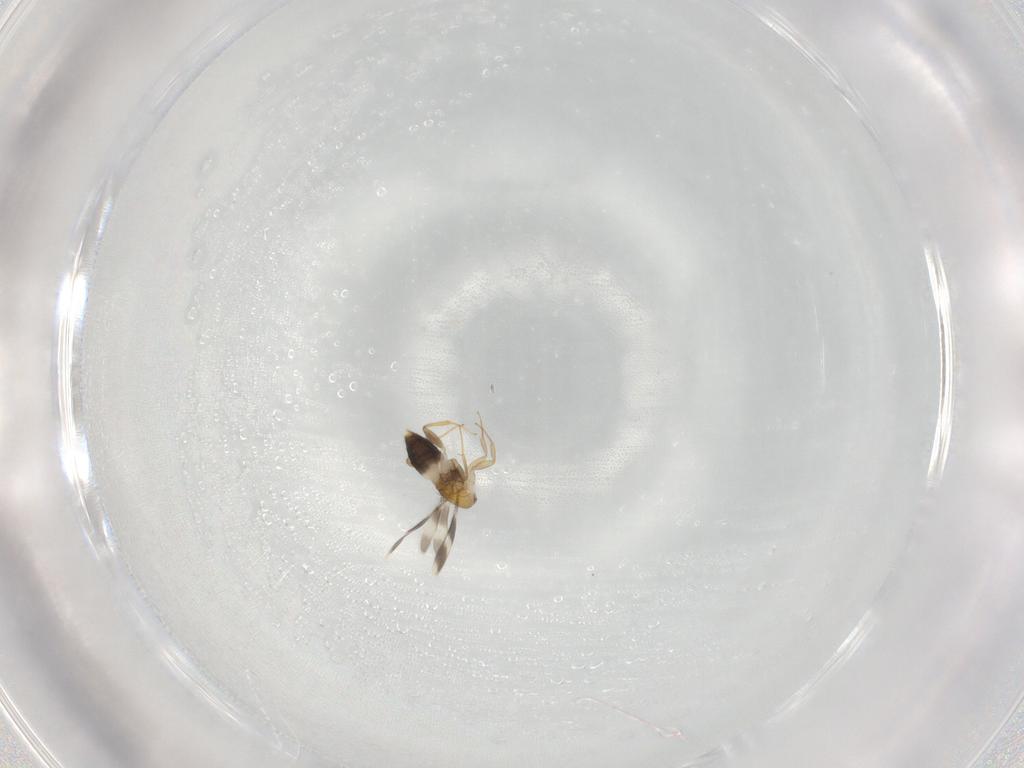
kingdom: Animalia
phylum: Arthropoda
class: Insecta
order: Hymenoptera
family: Aphelinidae
